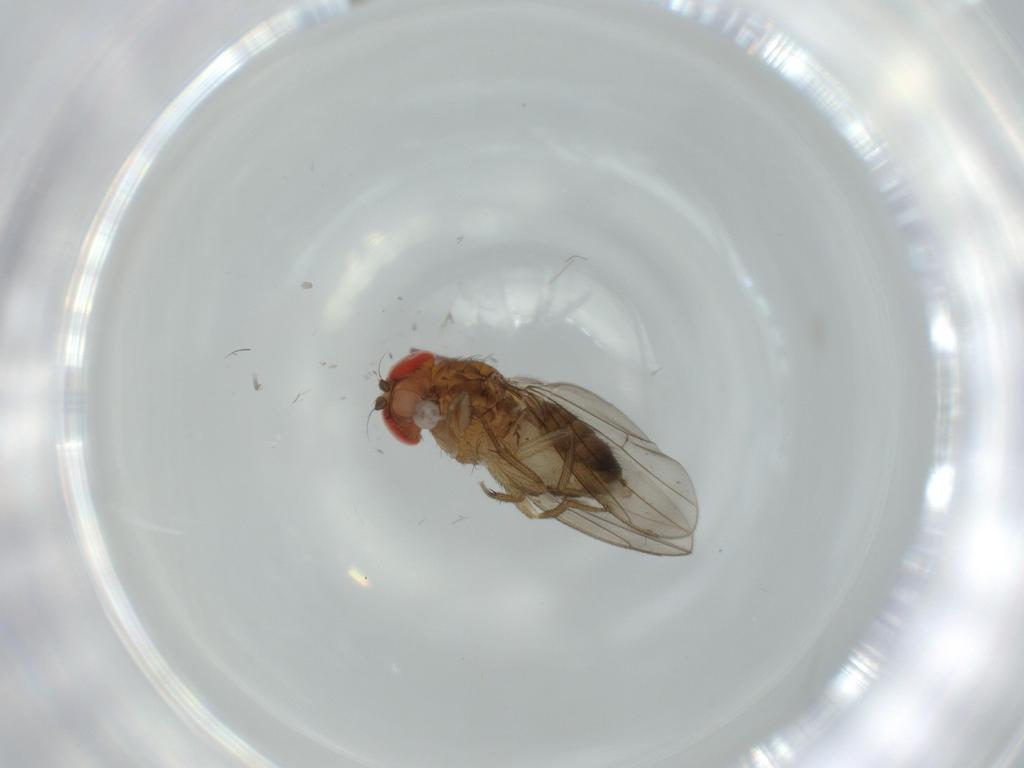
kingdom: Animalia
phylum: Arthropoda
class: Insecta
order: Diptera
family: Drosophilidae
